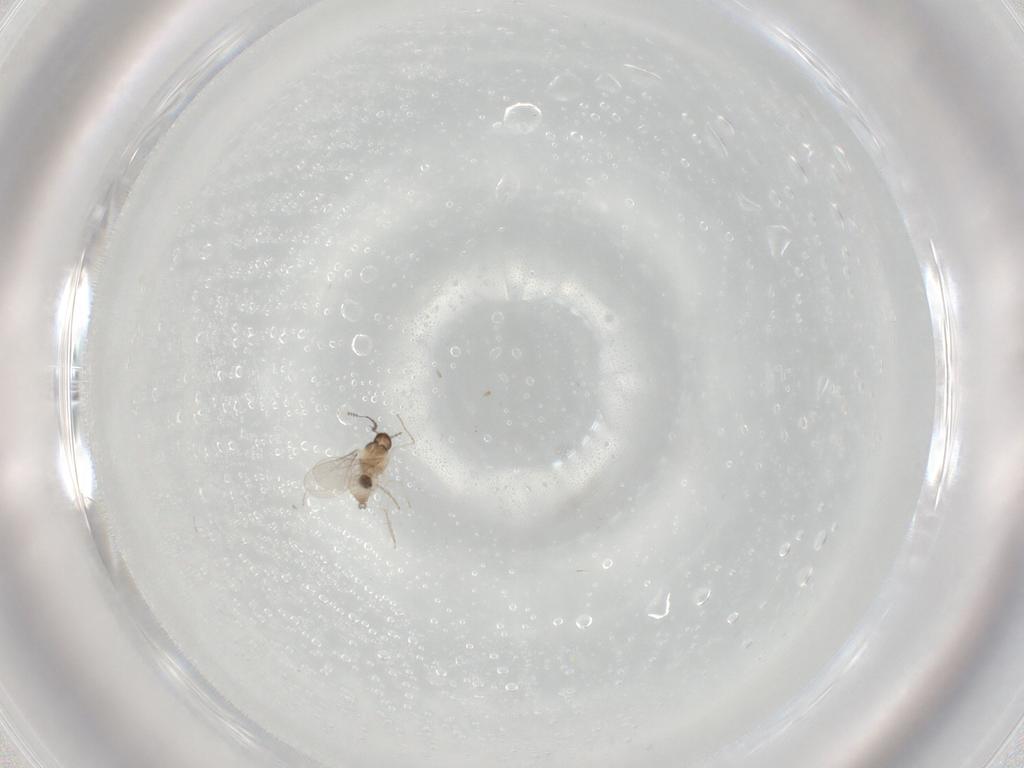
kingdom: Animalia
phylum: Arthropoda
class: Insecta
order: Diptera
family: Cecidomyiidae
